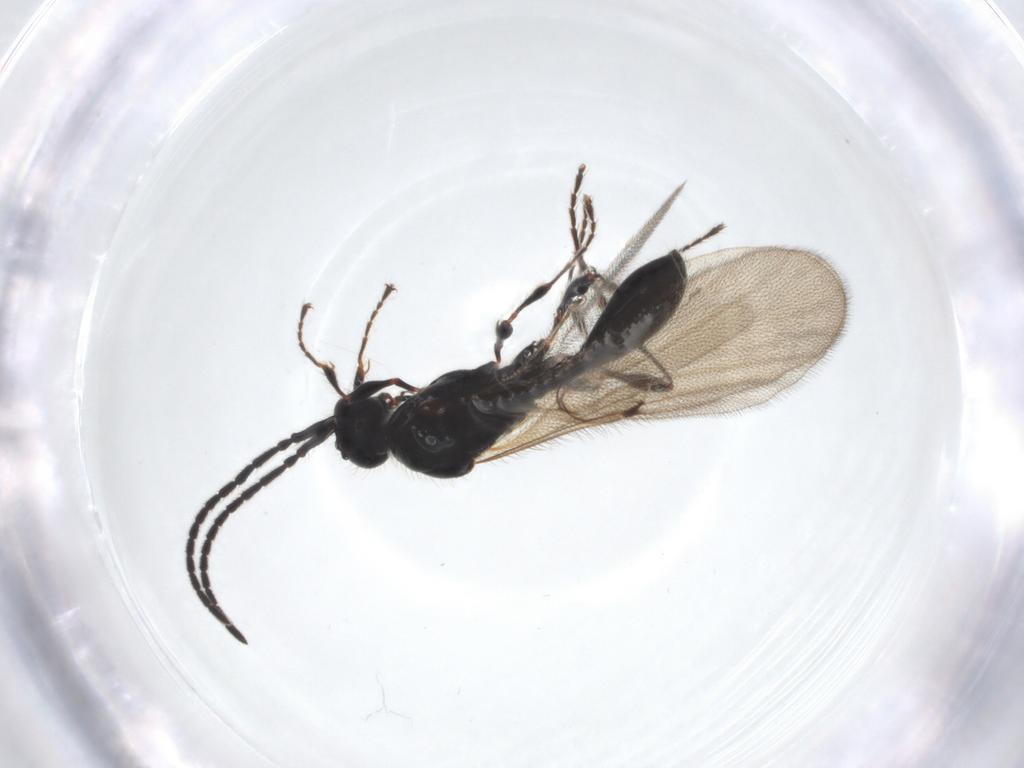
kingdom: Animalia
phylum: Arthropoda
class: Insecta
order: Hymenoptera
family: Diapriidae
